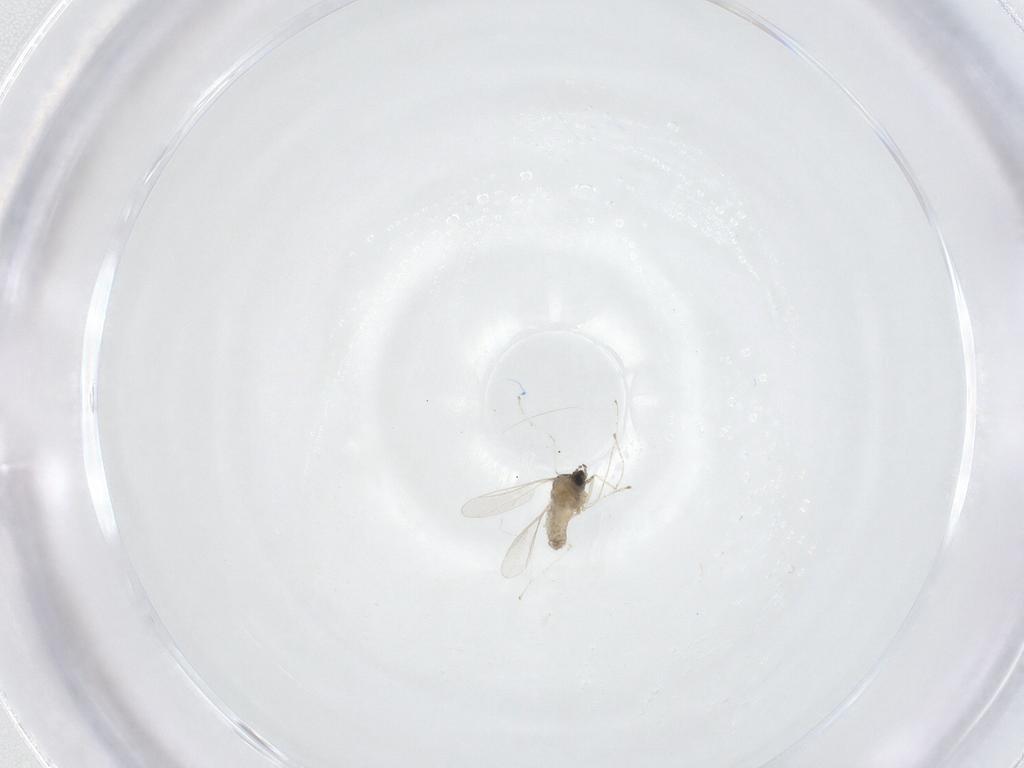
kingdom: Animalia
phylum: Arthropoda
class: Insecta
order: Diptera
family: Cecidomyiidae
